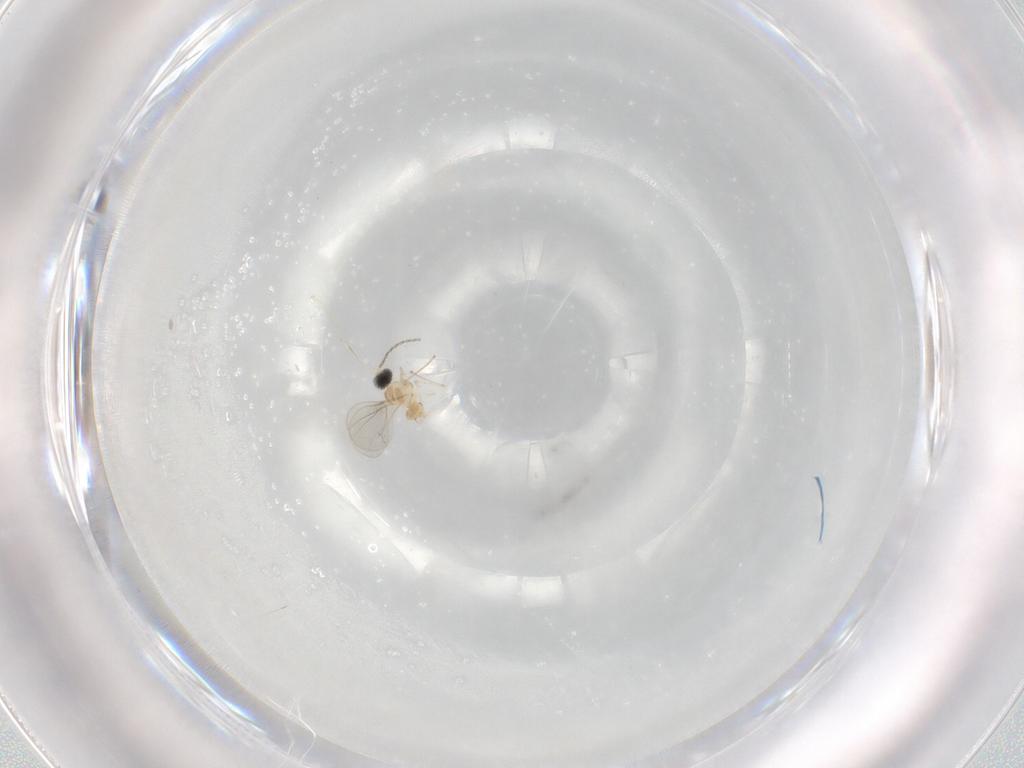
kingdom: Animalia
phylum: Arthropoda
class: Insecta
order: Diptera
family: Cecidomyiidae
